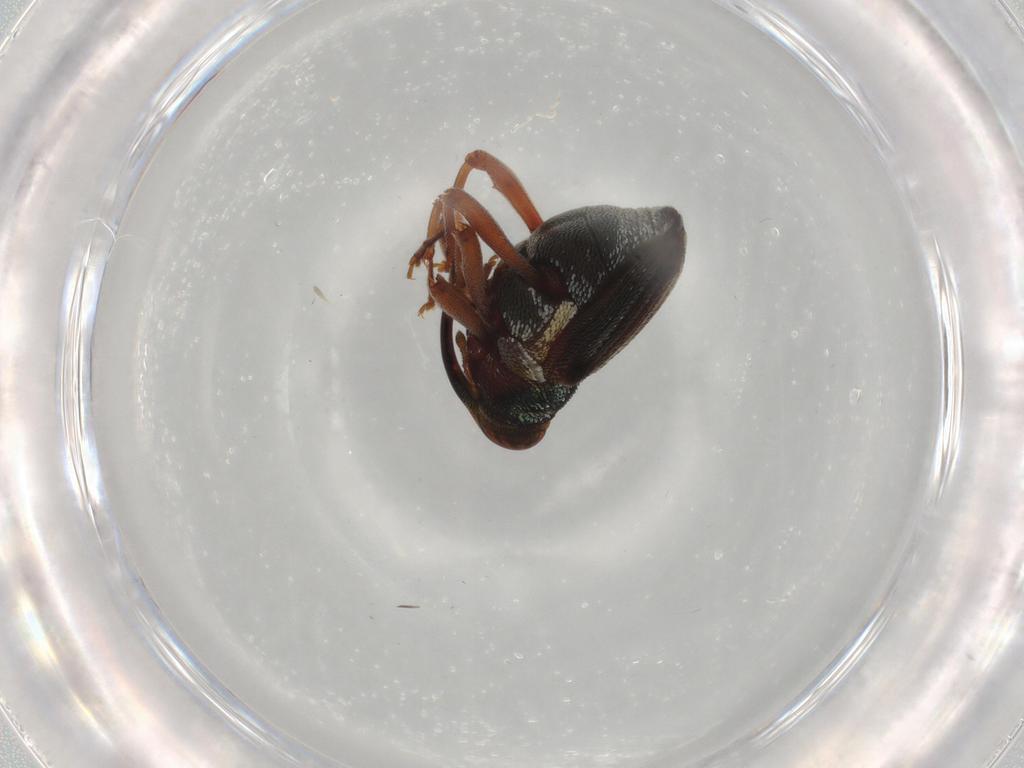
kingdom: Animalia
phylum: Arthropoda
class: Insecta
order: Coleoptera
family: Curculionidae
